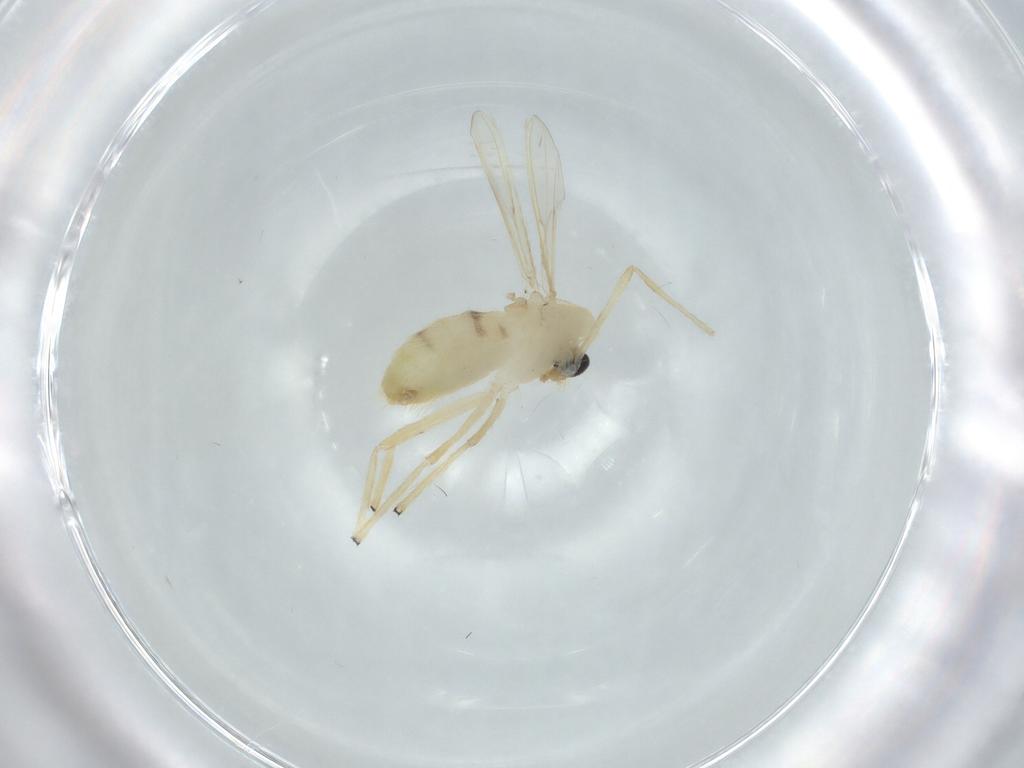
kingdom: Animalia
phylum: Arthropoda
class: Insecta
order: Diptera
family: Chironomidae
